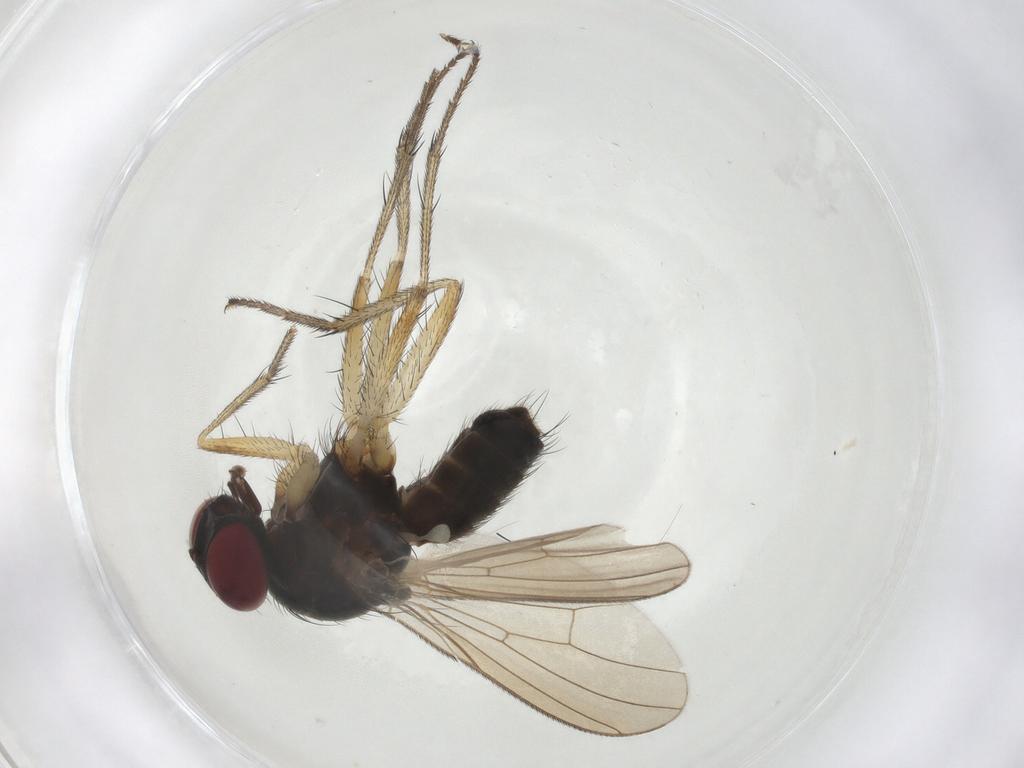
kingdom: Animalia
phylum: Arthropoda
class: Insecta
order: Diptera
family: Muscidae
